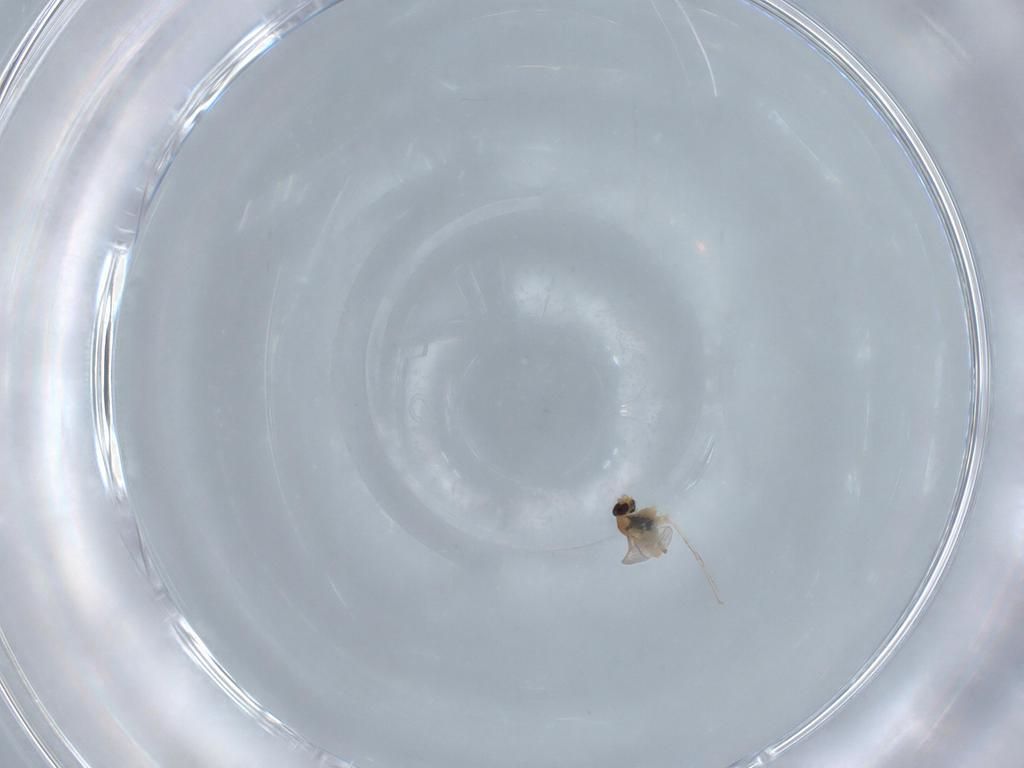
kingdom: Animalia
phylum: Arthropoda
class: Insecta
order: Diptera
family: Cecidomyiidae
